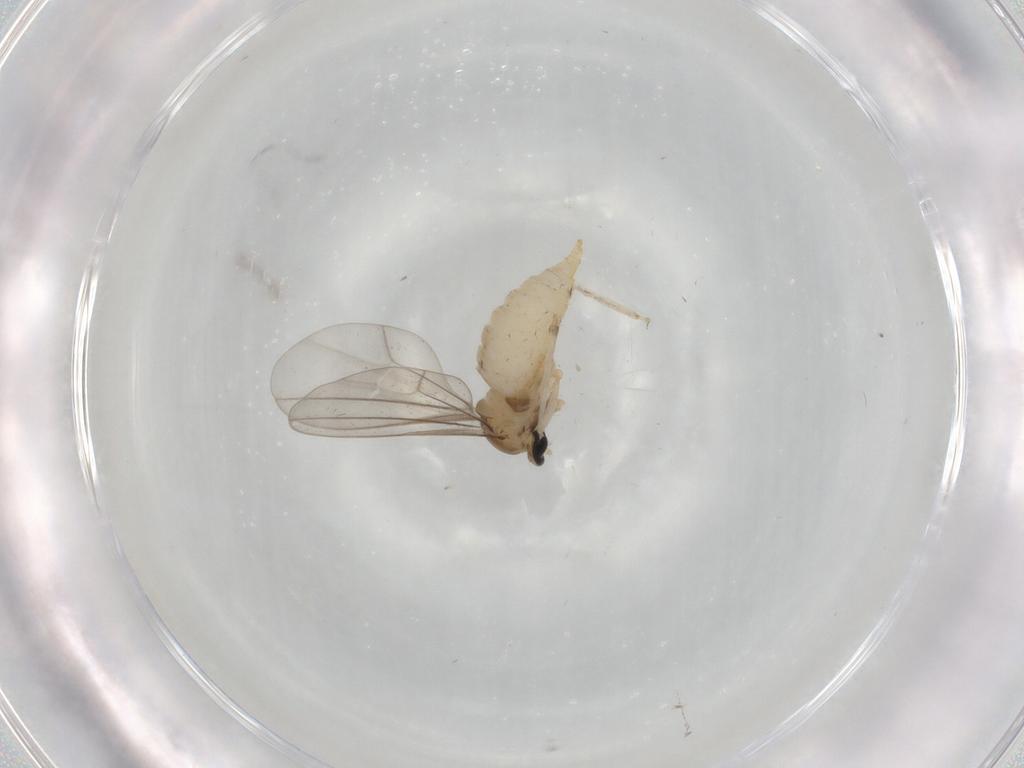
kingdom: Animalia
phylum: Arthropoda
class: Insecta
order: Diptera
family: Cecidomyiidae
